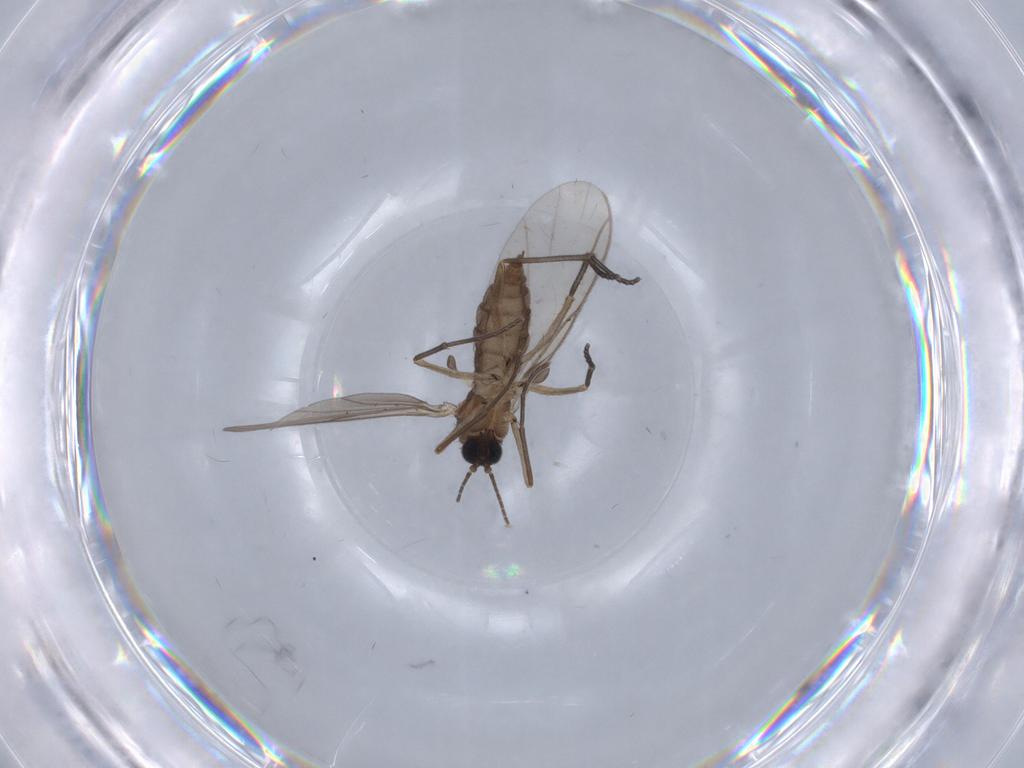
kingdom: Animalia
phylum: Arthropoda
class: Insecta
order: Diptera
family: Sciaridae
